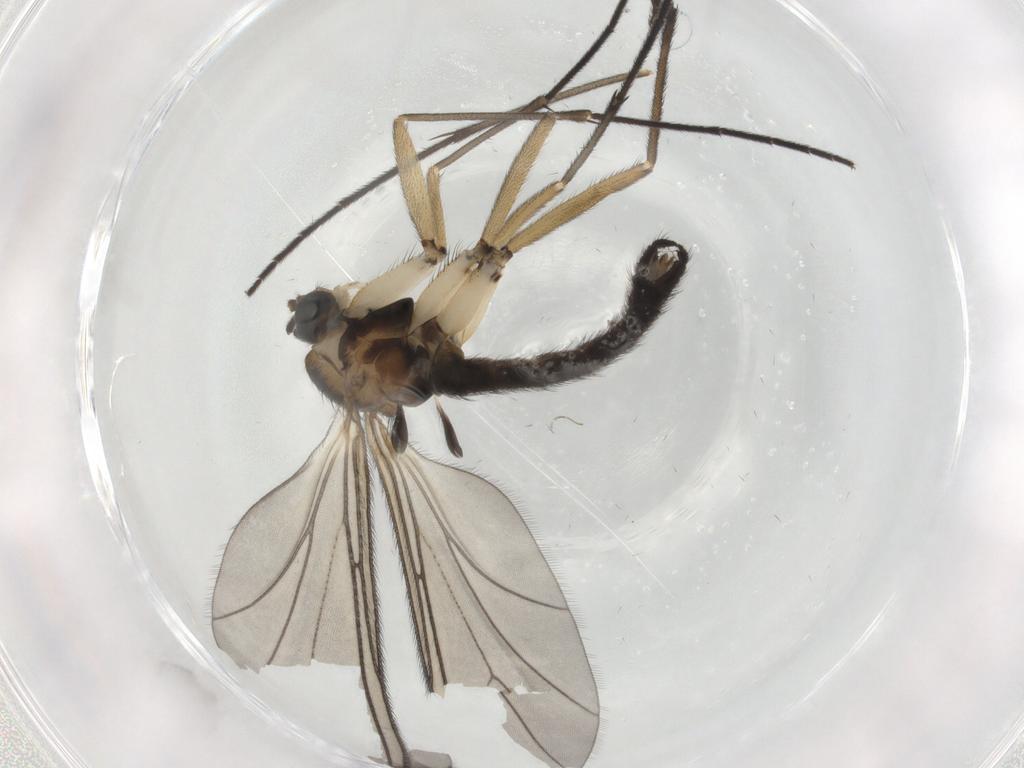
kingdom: Animalia
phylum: Arthropoda
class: Insecta
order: Diptera
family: Sciaridae
